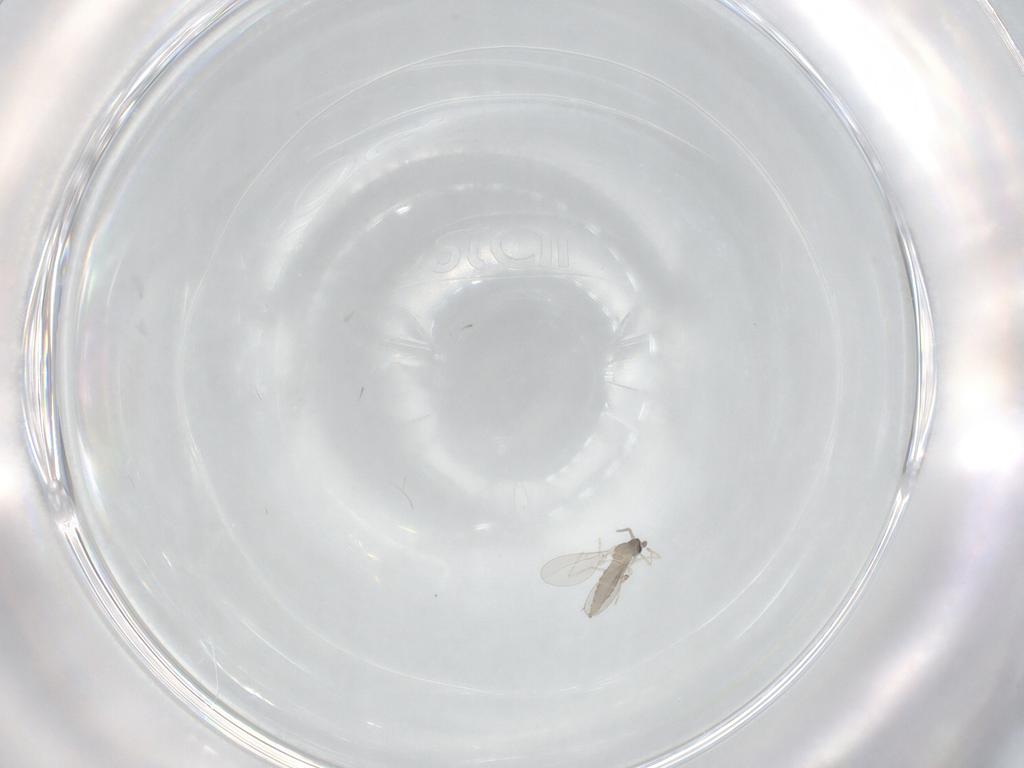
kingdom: Animalia
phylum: Arthropoda
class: Insecta
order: Diptera
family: Cecidomyiidae
